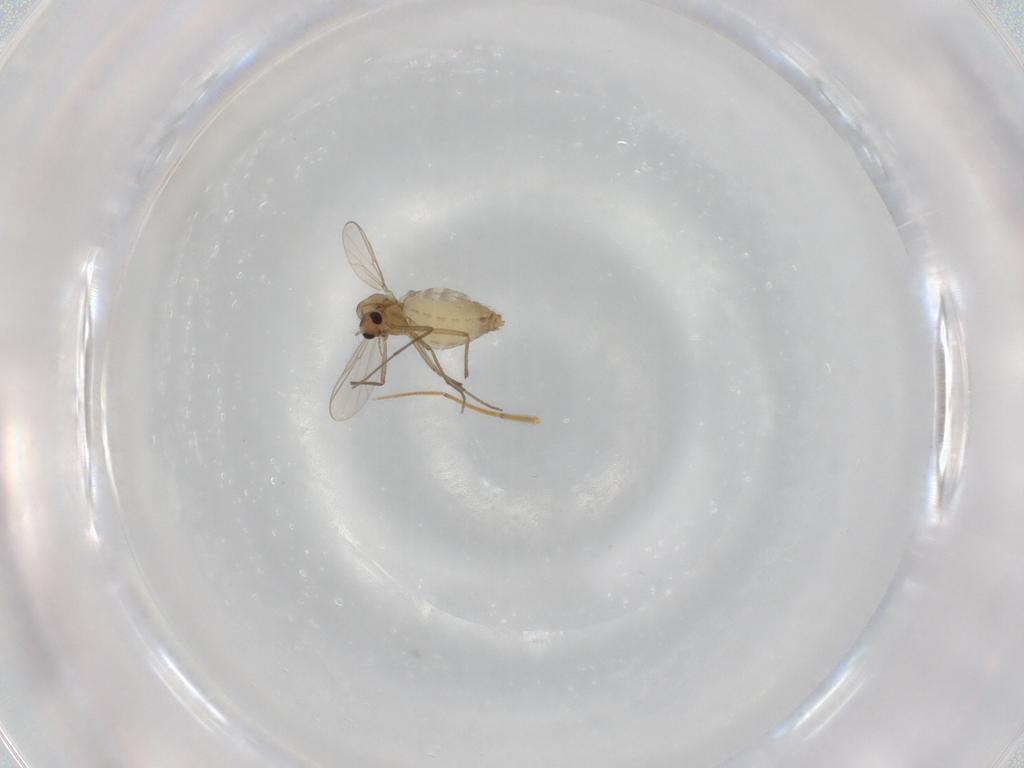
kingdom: Animalia
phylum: Arthropoda
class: Insecta
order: Diptera
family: Chironomidae
